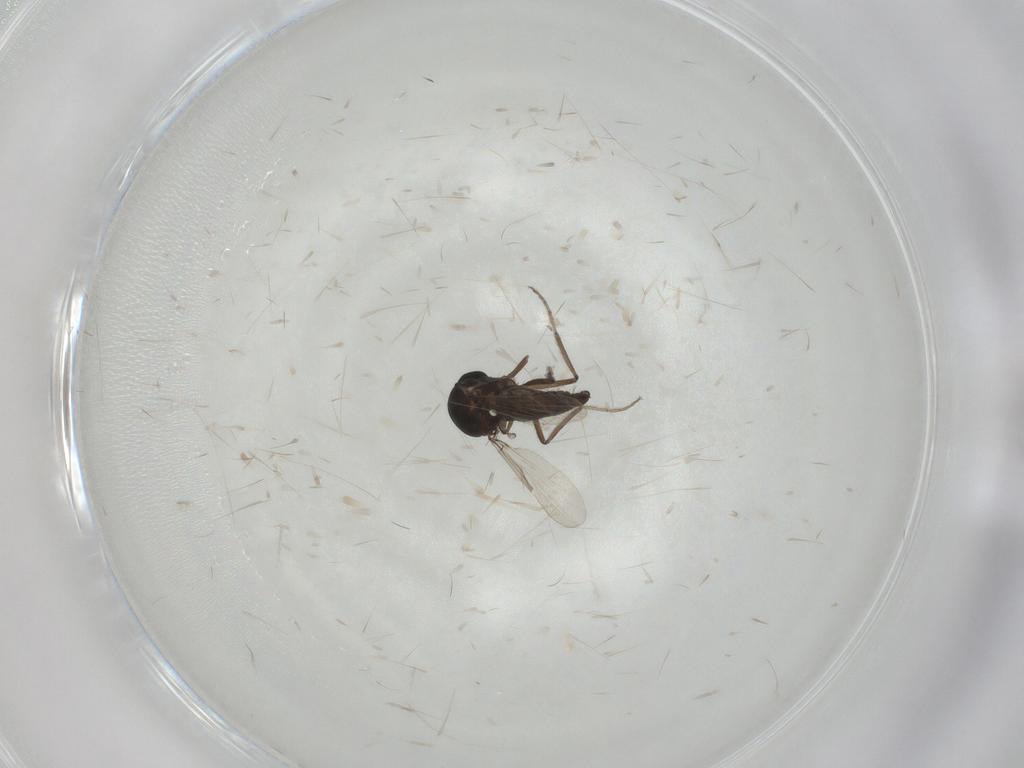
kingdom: Animalia
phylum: Arthropoda
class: Insecta
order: Diptera
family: Ceratopogonidae
